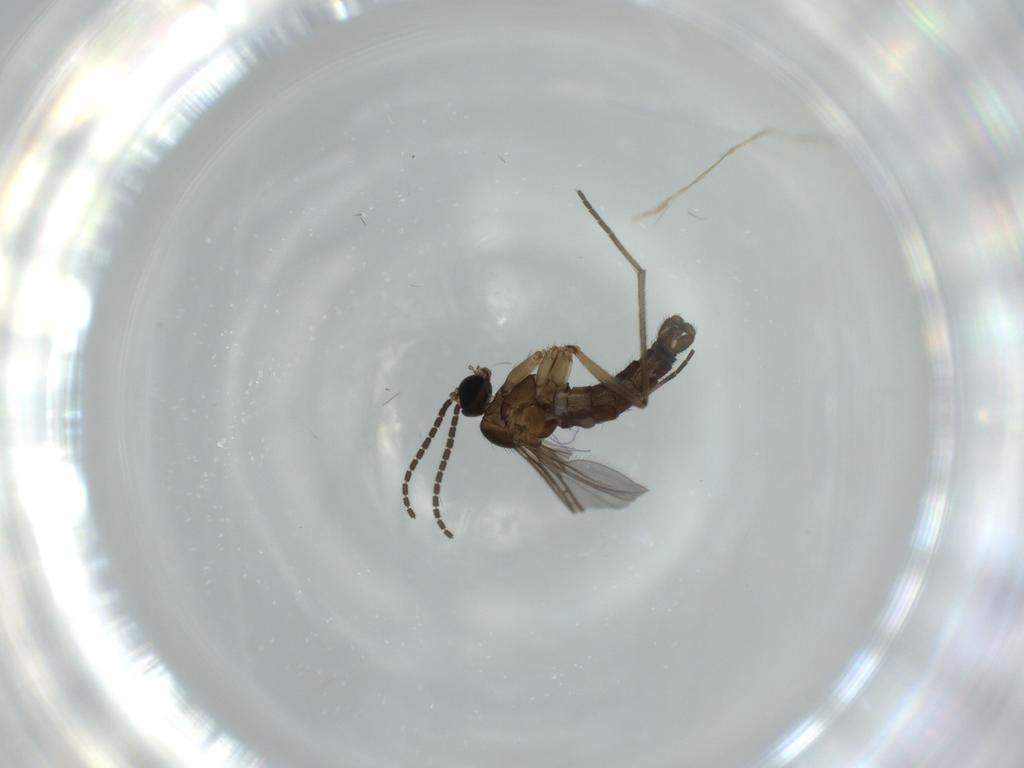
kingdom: Animalia
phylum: Arthropoda
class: Insecta
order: Diptera
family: Sciaridae
